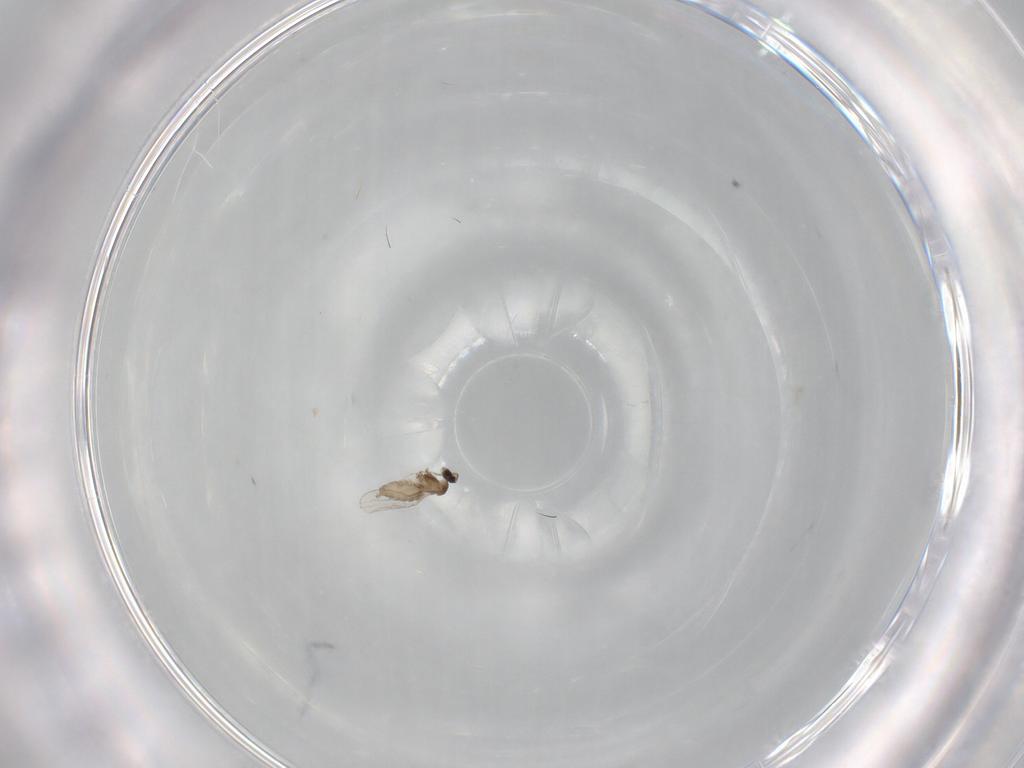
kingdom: Animalia
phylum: Arthropoda
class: Insecta
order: Diptera
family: Cecidomyiidae
